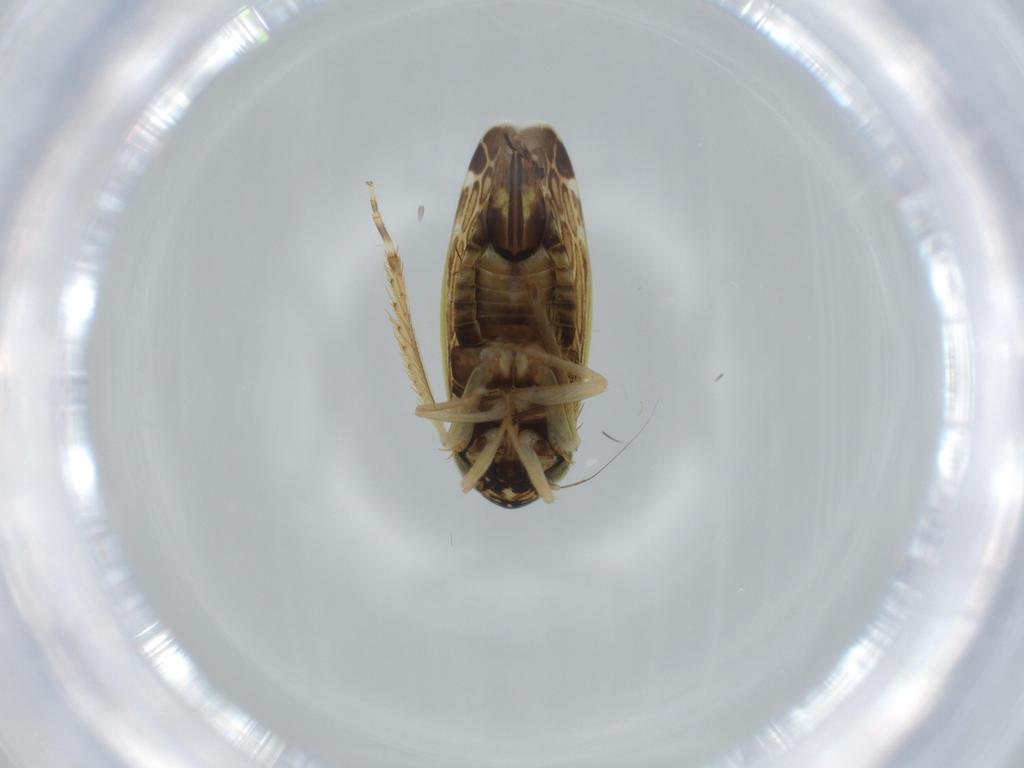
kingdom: Animalia
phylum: Arthropoda
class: Insecta
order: Hemiptera
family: Cicadellidae
